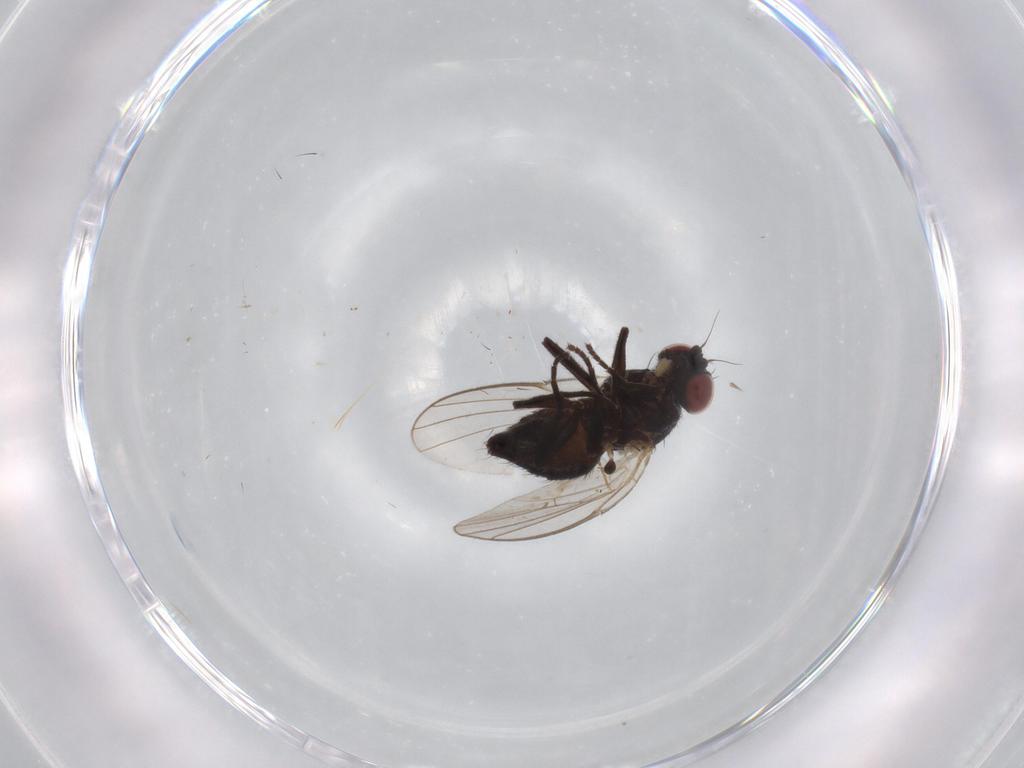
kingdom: Animalia
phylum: Arthropoda
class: Insecta
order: Diptera
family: Dolichopodidae
